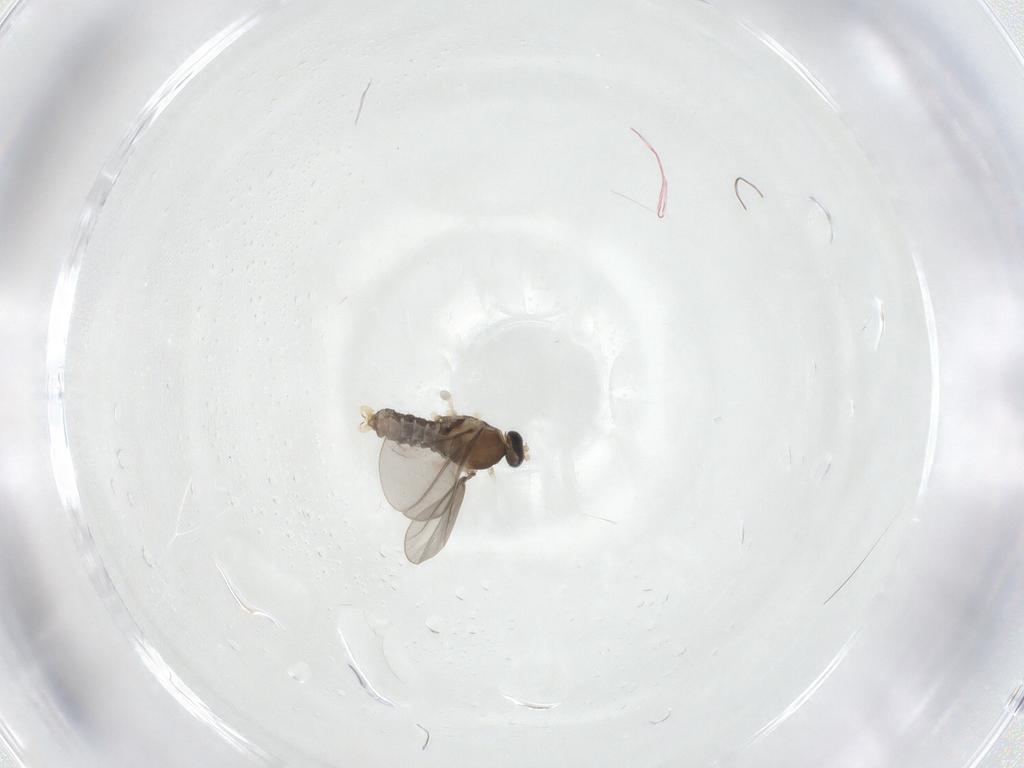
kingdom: Animalia
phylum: Arthropoda
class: Insecta
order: Diptera
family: Cecidomyiidae
